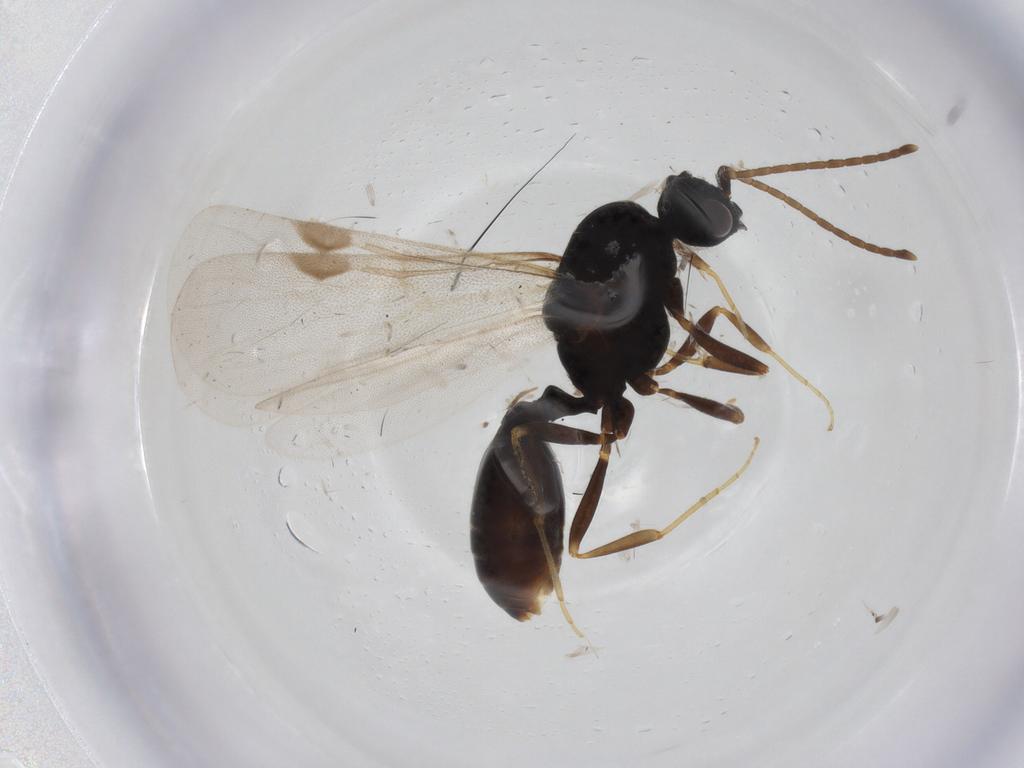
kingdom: Animalia
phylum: Arthropoda
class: Insecta
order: Hymenoptera
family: Formicidae
